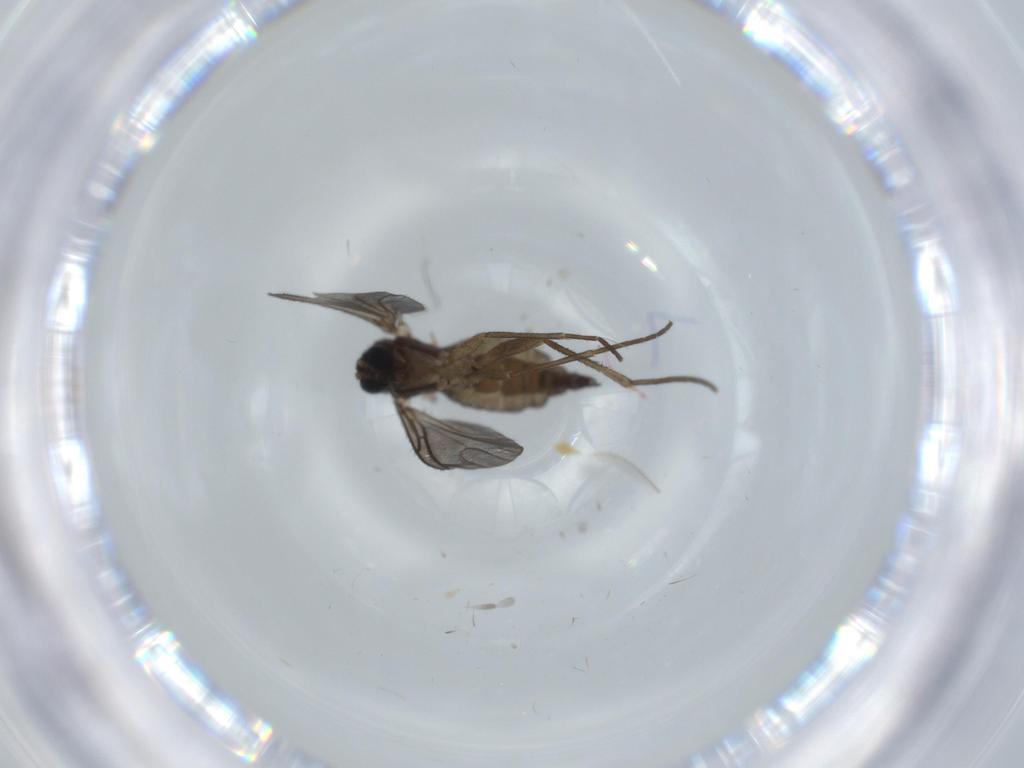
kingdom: Animalia
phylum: Arthropoda
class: Insecta
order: Diptera
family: Sciaridae
